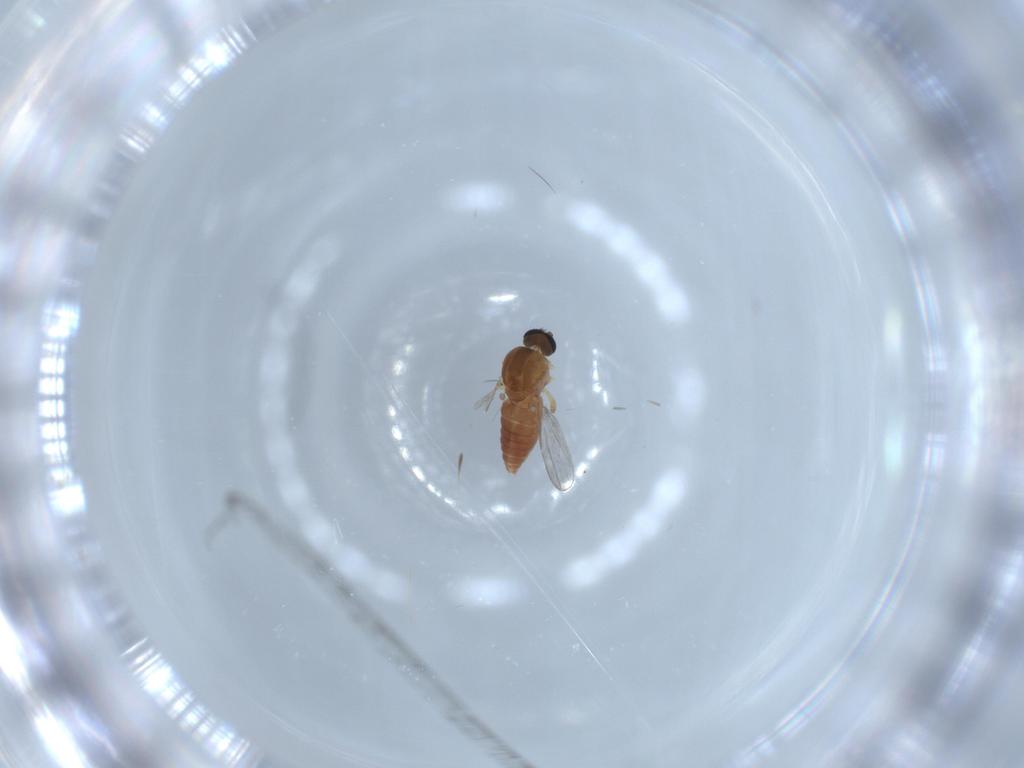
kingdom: Animalia
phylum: Arthropoda
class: Insecta
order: Diptera
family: Ceratopogonidae
